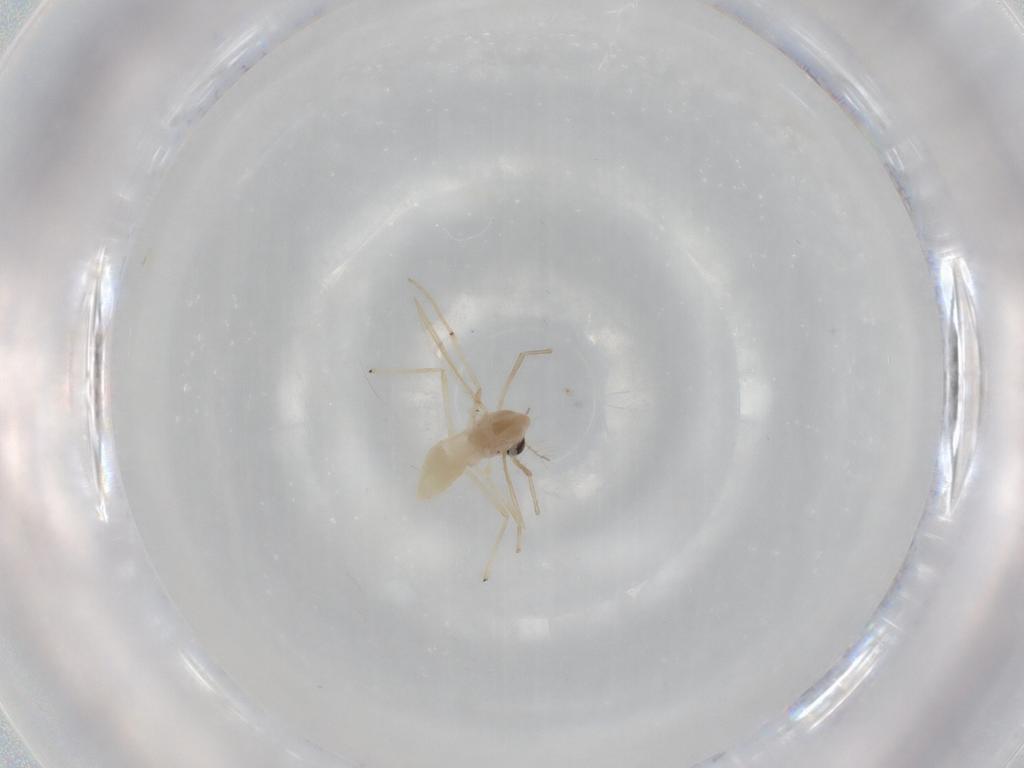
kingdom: Animalia
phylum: Arthropoda
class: Insecta
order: Diptera
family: Chironomidae
